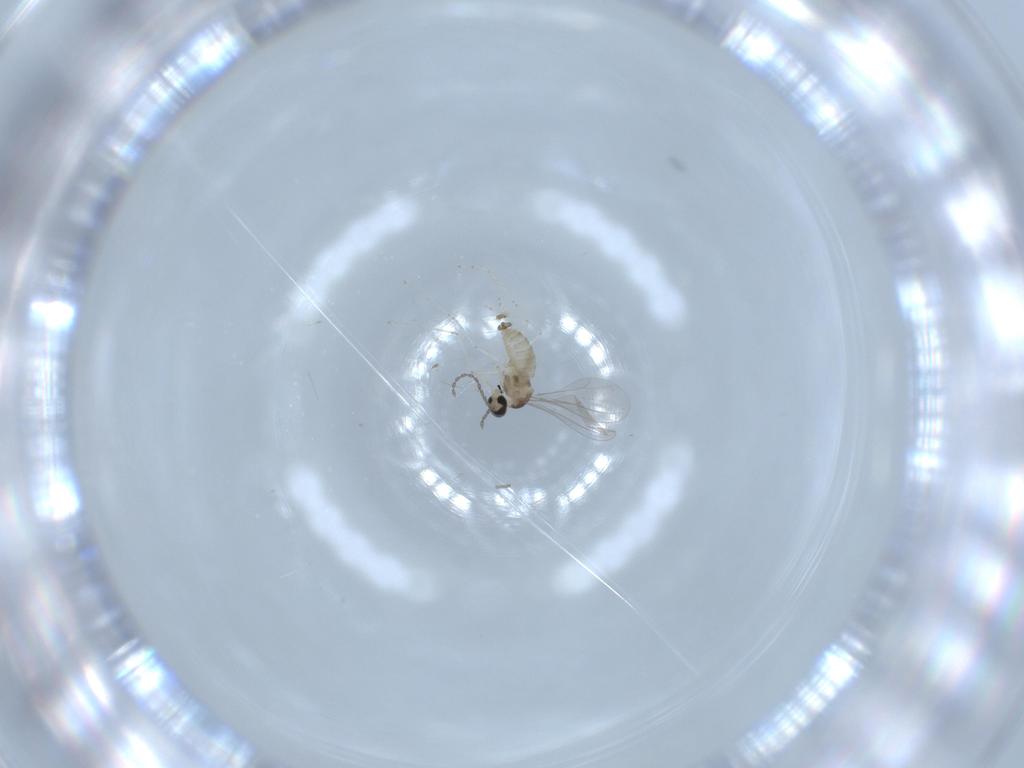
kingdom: Animalia
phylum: Arthropoda
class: Insecta
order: Diptera
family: Cecidomyiidae
